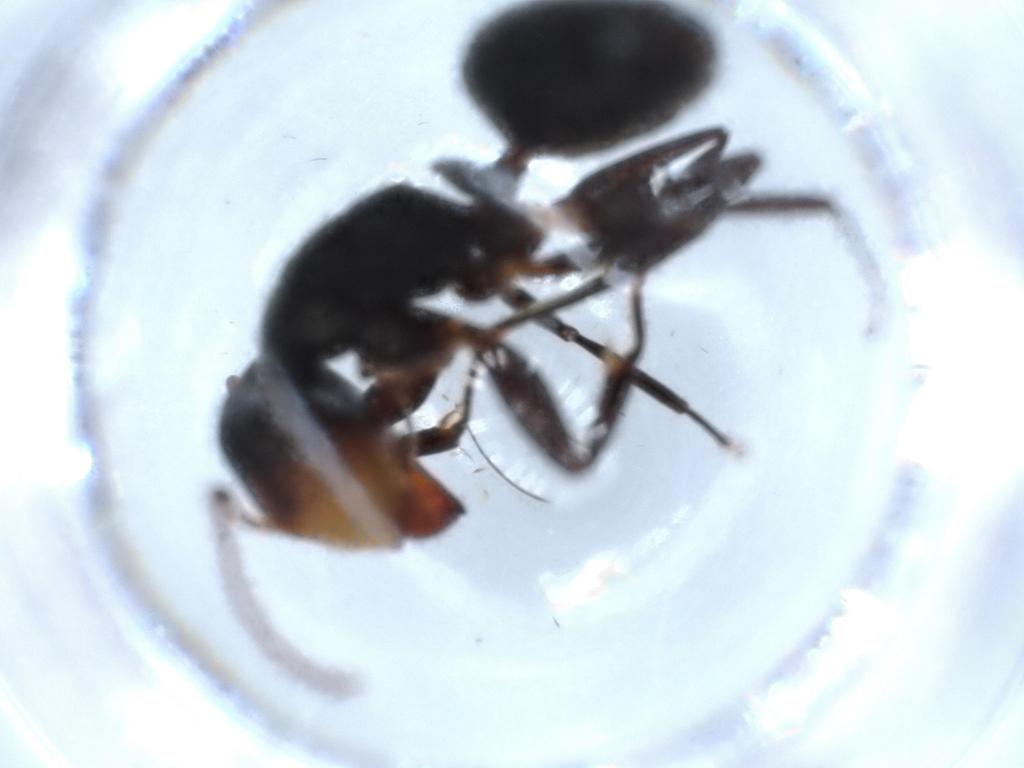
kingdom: Animalia
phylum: Arthropoda
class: Insecta
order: Hymenoptera
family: Formicidae
